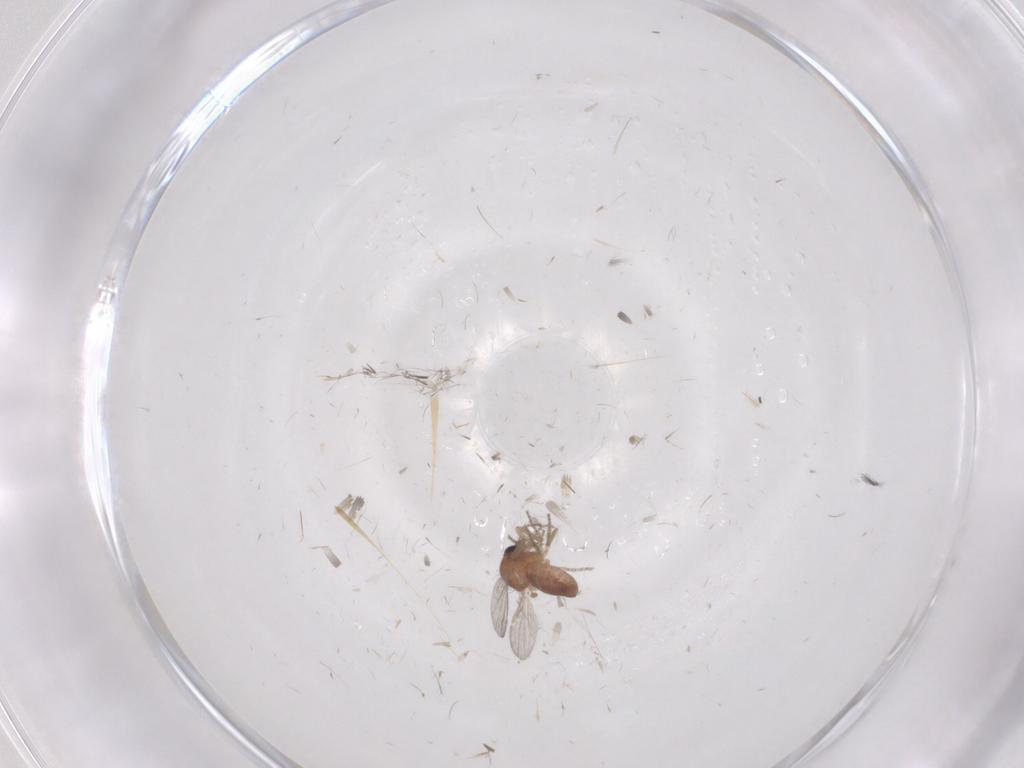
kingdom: Animalia
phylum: Arthropoda
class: Insecta
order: Diptera
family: Ceratopogonidae
